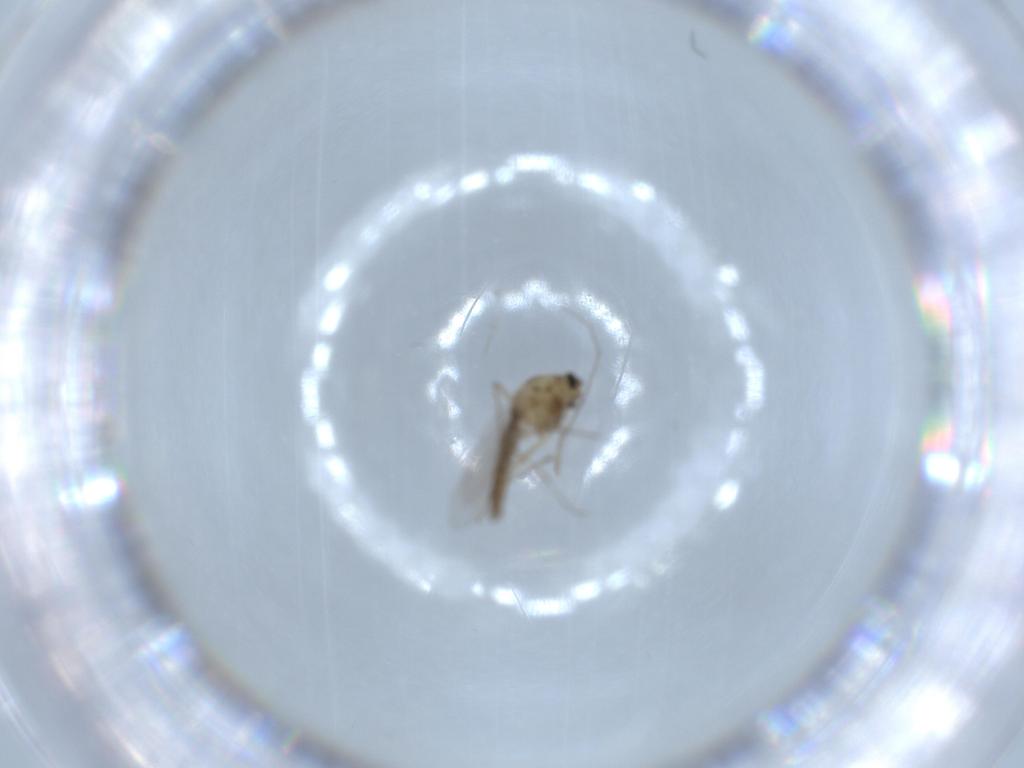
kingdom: Animalia
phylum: Arthropoda
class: Insecta
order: Diptera
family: Chironomidae
